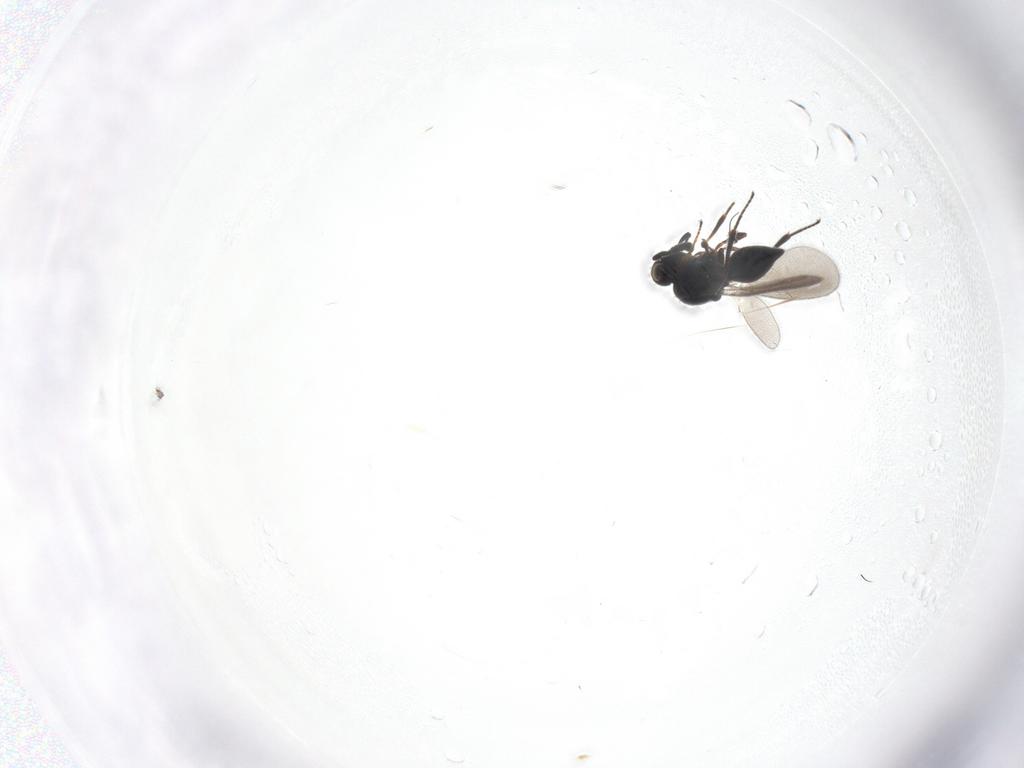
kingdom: Animalia
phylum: Arthropoda
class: Insecta
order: Hymenoptera
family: Platygastridae
